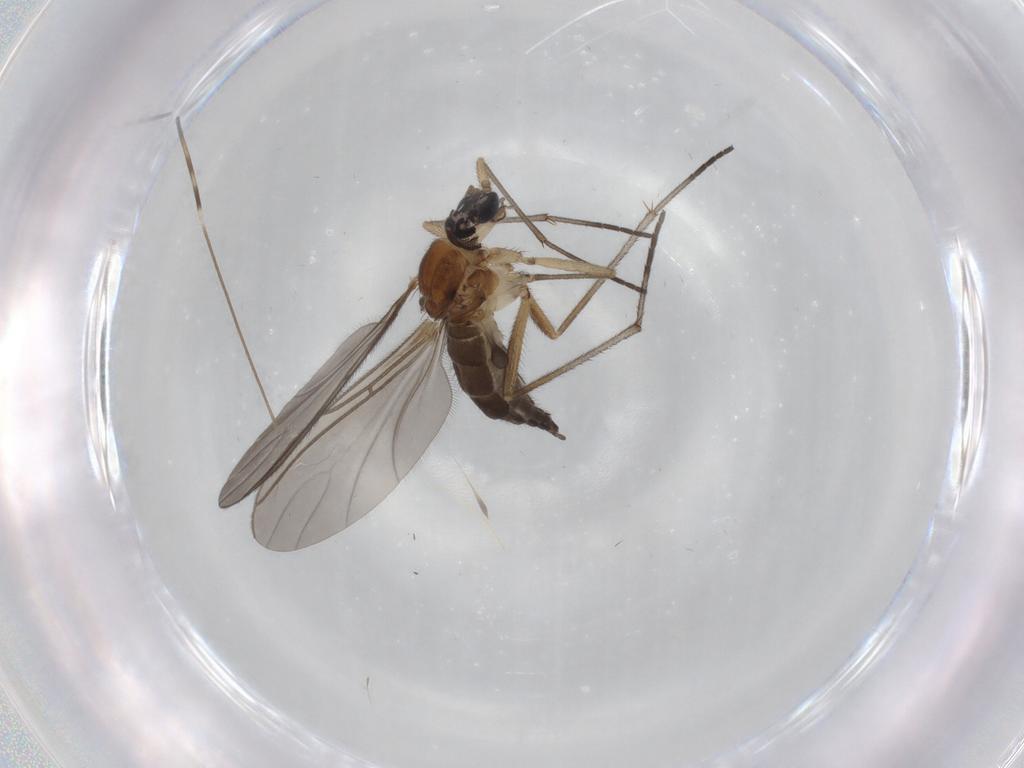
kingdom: Animalia
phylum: Arthropoda
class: Insecta
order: Diptera
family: Sciaridae
